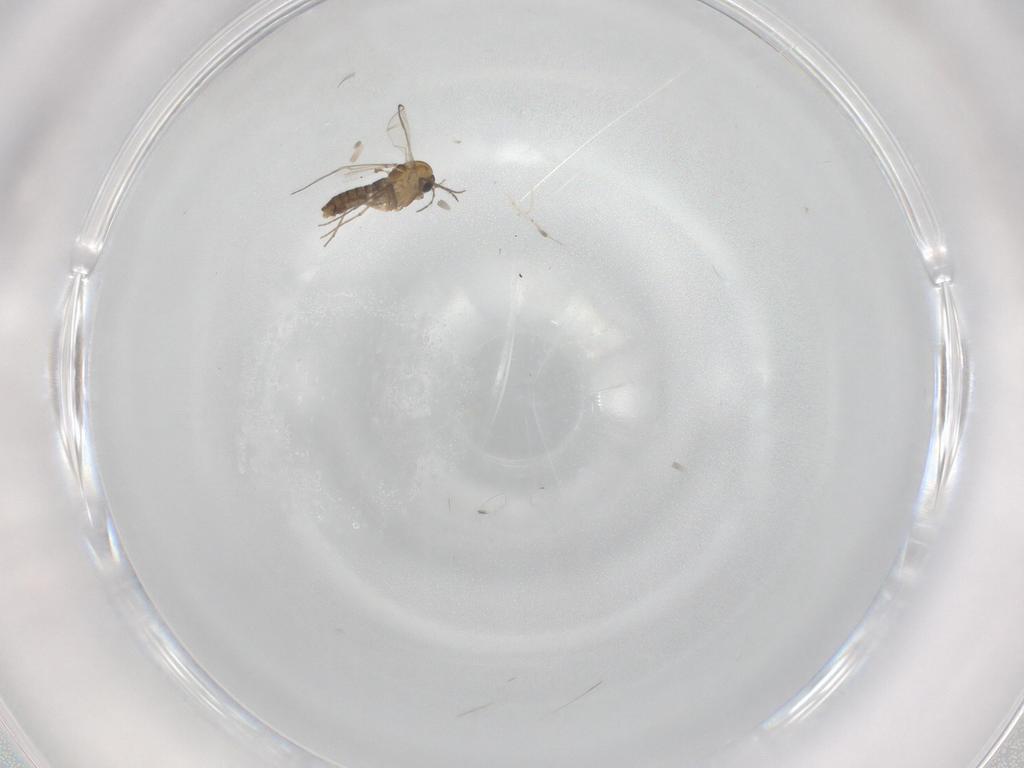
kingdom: Animalia
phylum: Arthropoda
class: Insecta
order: Diptera
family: Chironomidae
